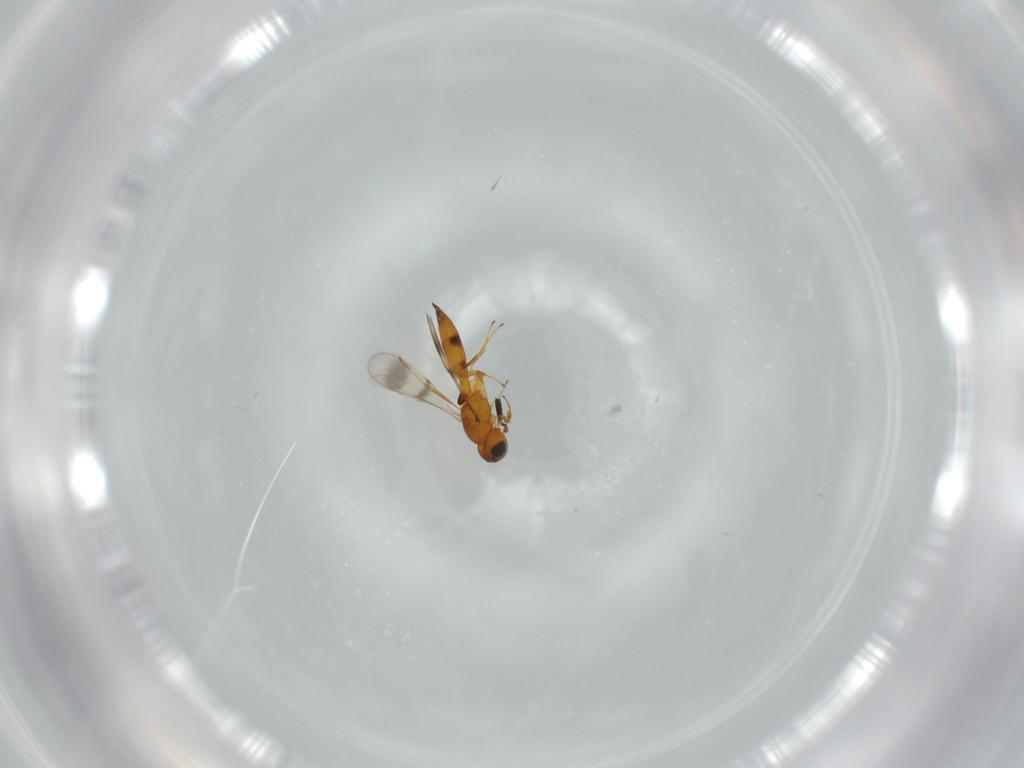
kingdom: Animalia
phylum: Arthropoda
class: Insecta
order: Hymenoptera
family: Scelionidae
